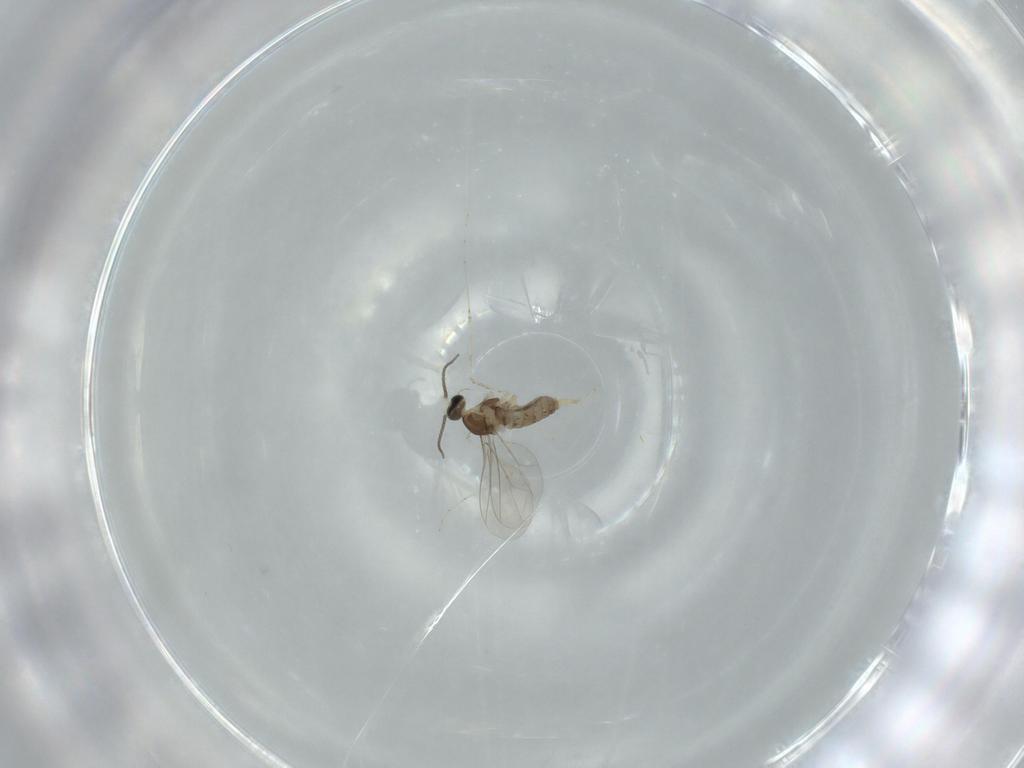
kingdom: Animalia
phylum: Arthropoda
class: Insecta
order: Diptera
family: Cecidomyiidae
